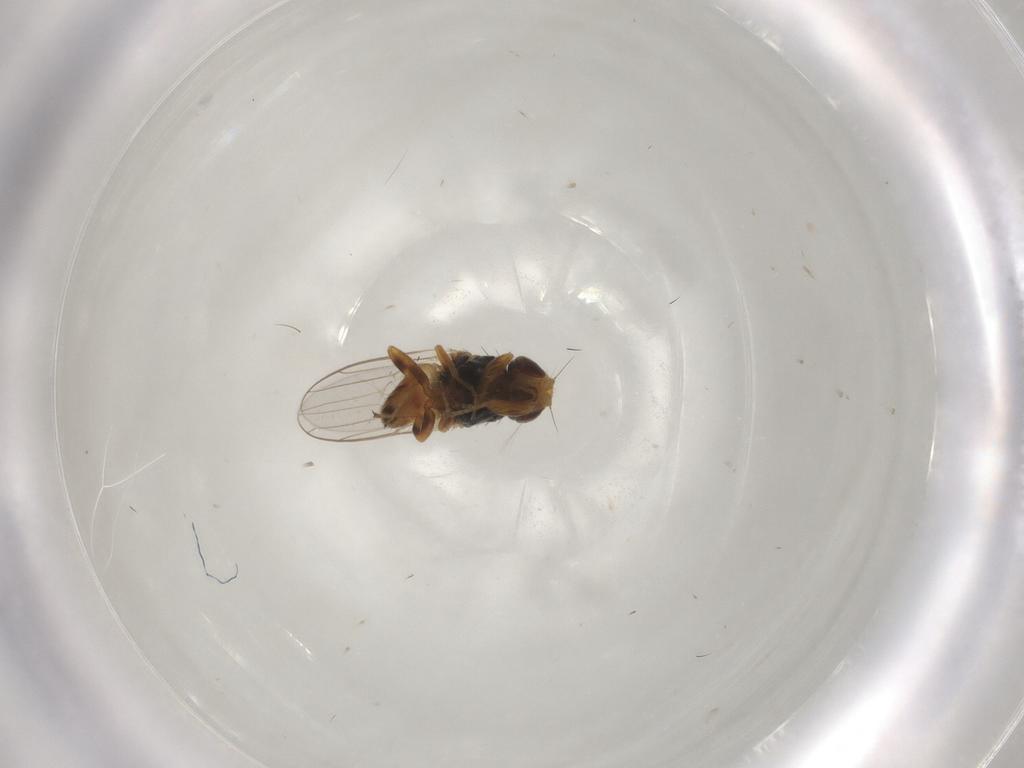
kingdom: Animalia
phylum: Arthropoda
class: Insecta
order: Diptera
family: Chloropidae
